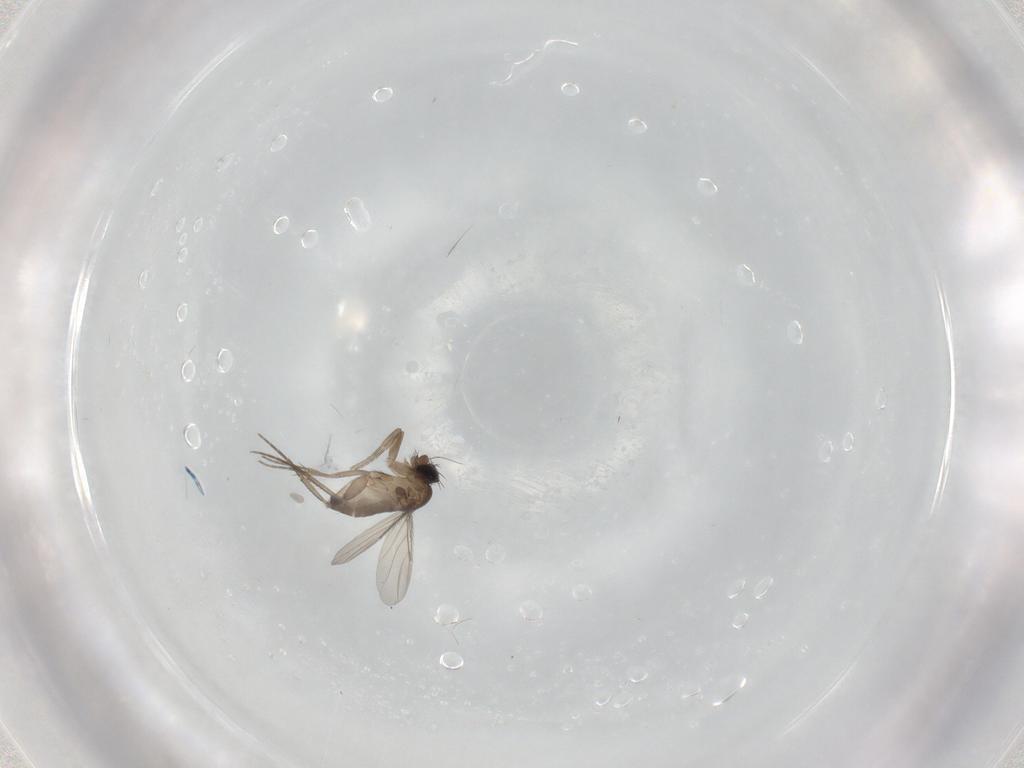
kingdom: Animalia
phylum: Arthropoda
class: Insecta
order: Diptera
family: Phoridae
